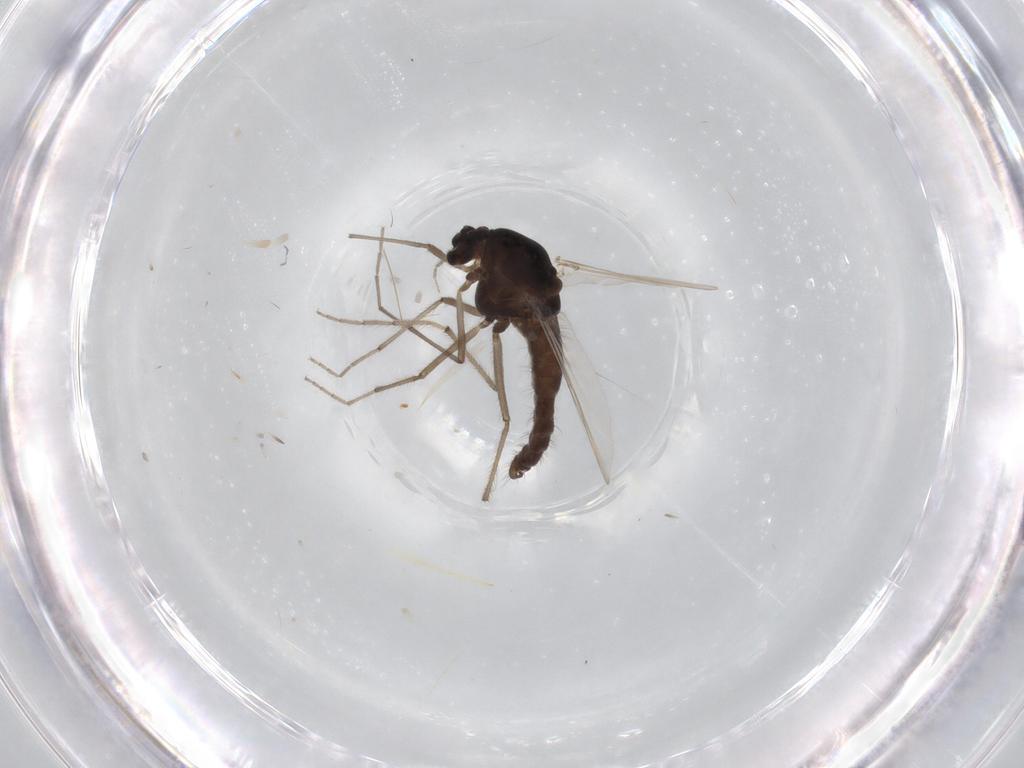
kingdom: Animalia
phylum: Arthropoda
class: Insecta
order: Diptera
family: Chironomidae
